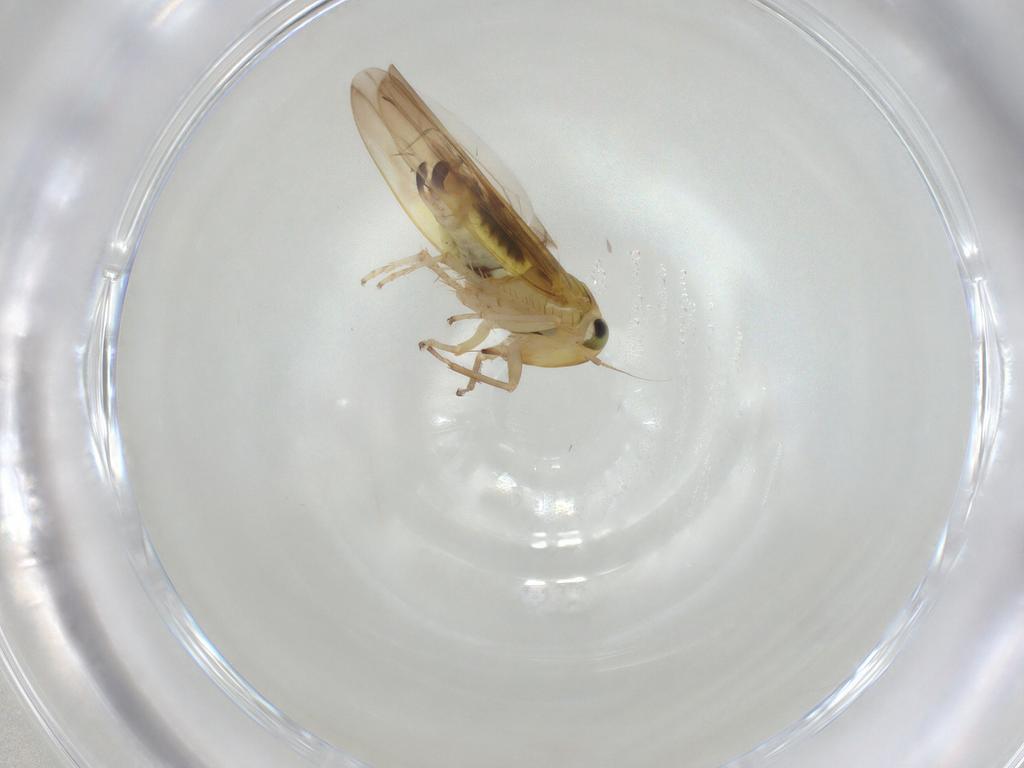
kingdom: Animalia
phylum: Arthropoda
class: Insecta
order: Hemiptera
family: Cicadellidae
